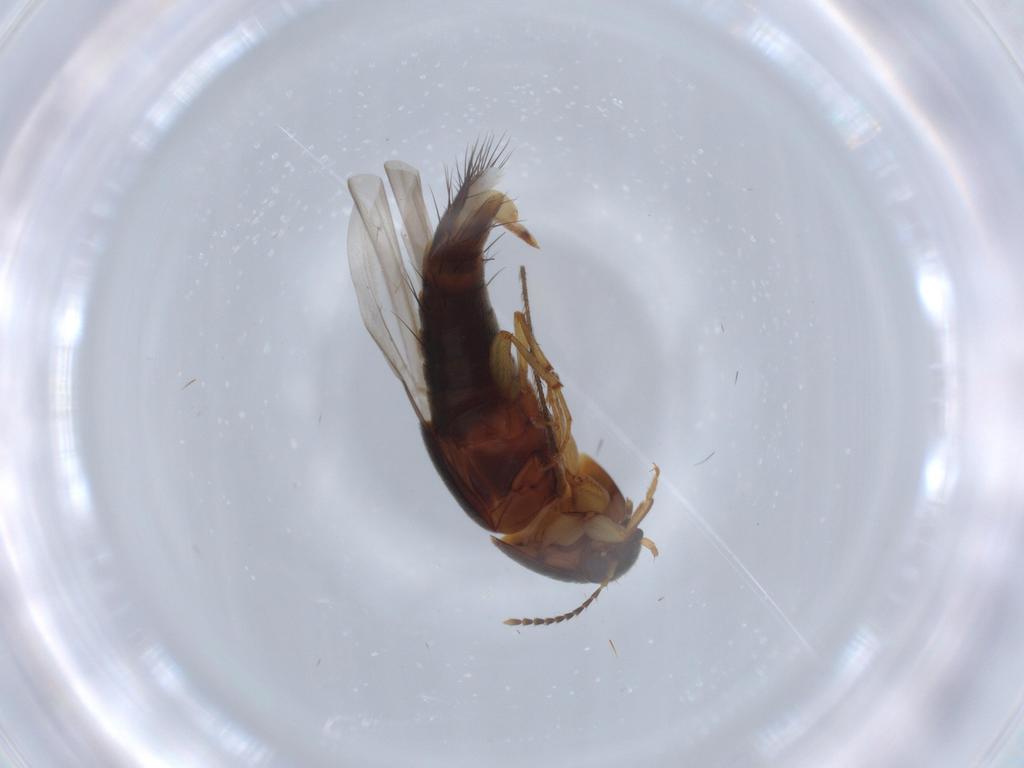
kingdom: Animalia
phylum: Arthropoda
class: Insecta
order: Coleoptera
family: Staphylinidae
